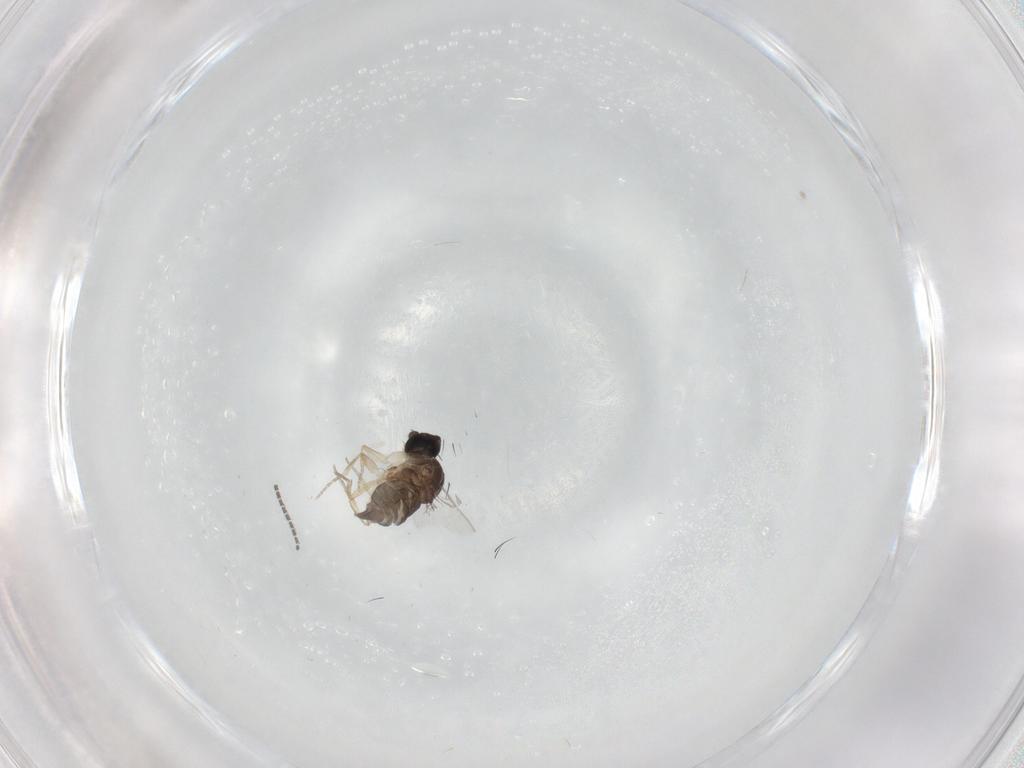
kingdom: Animalia
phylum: Arthropoda
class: Insecta
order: Diptera
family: Phoridae
